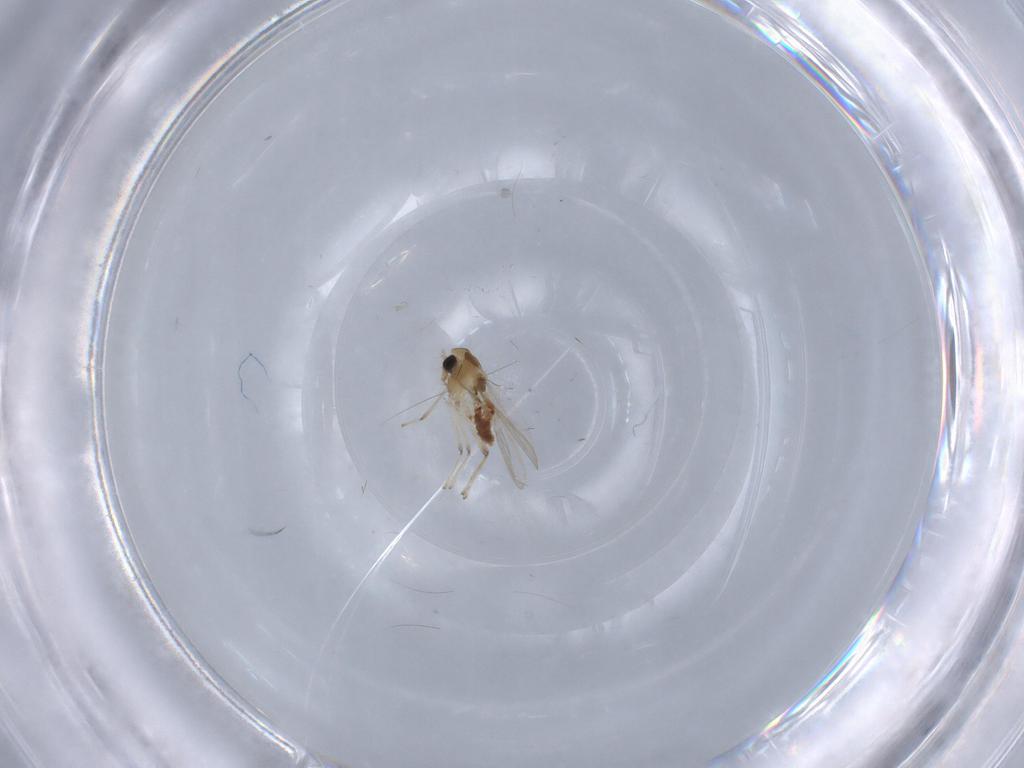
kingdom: Animalia
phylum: Arthropoda
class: Insecta
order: Diptera
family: Chironomidae
